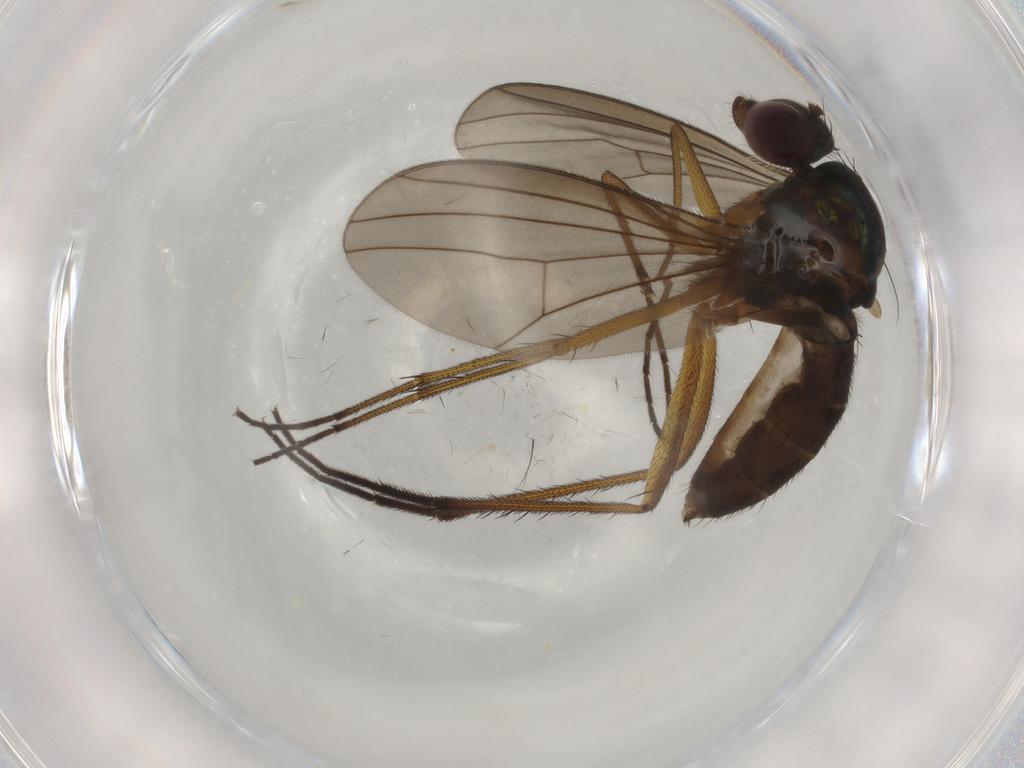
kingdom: Animalia
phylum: Arthropoda
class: Insecta
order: Diptera
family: Dolichopodidae
